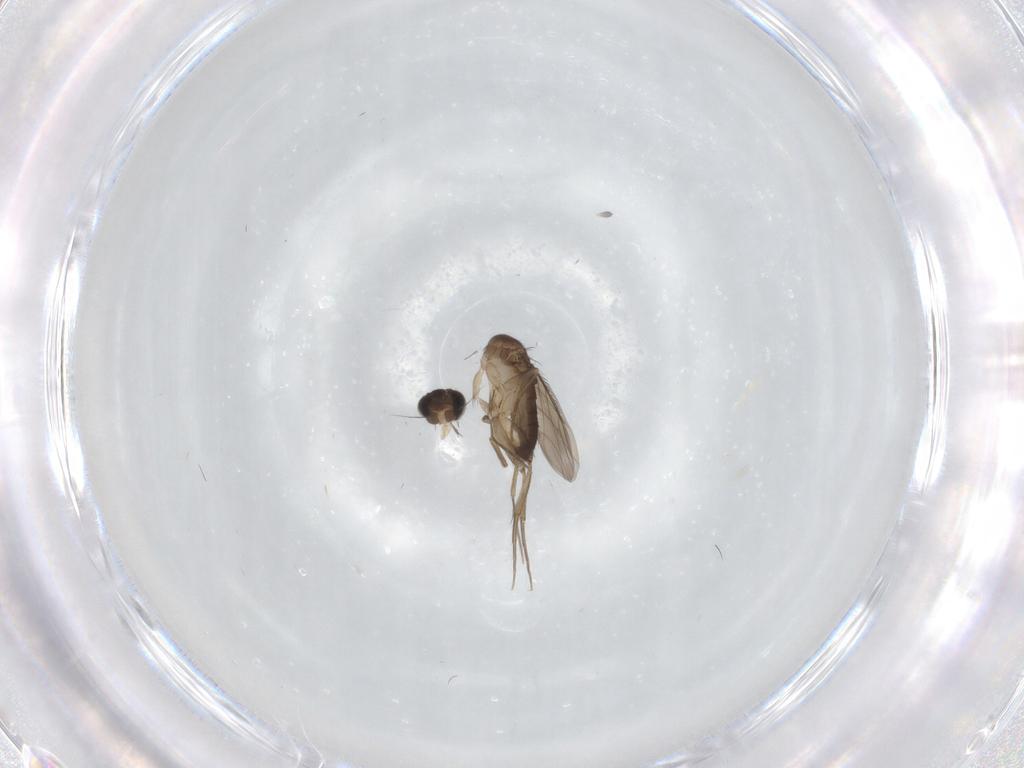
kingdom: Animalia
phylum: Arthropoda
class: Insecta
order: Diptera
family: Phoridae
